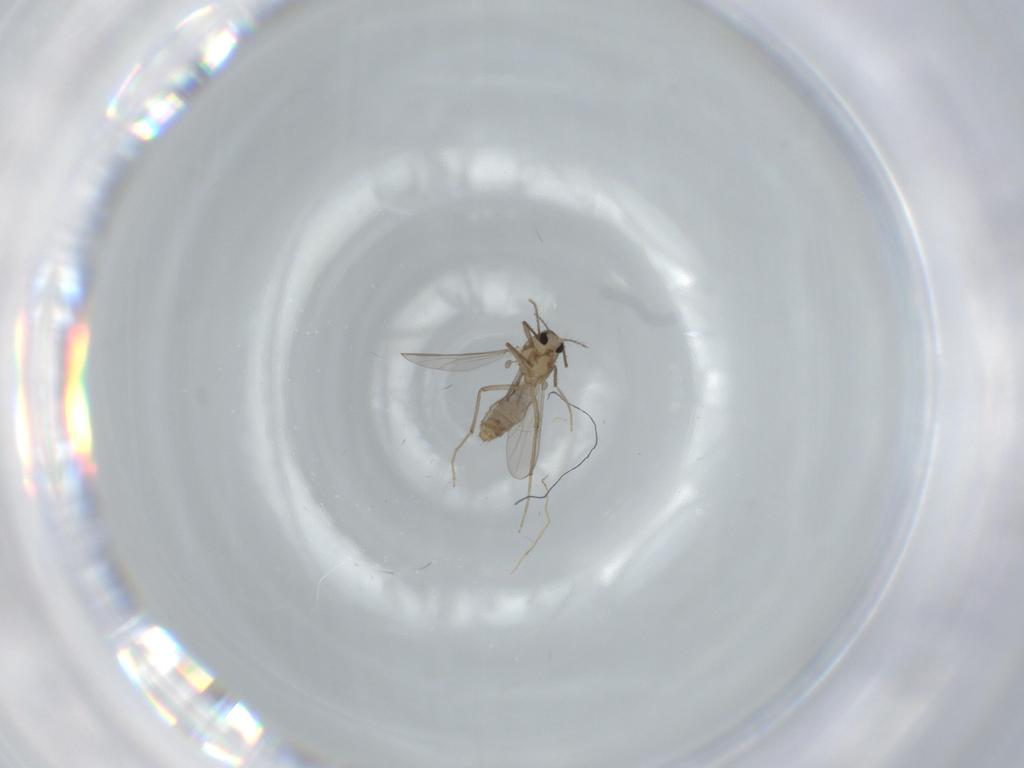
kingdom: Animalia
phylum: Arthropoda
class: Insecta
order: Diptera
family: Chironomidae
